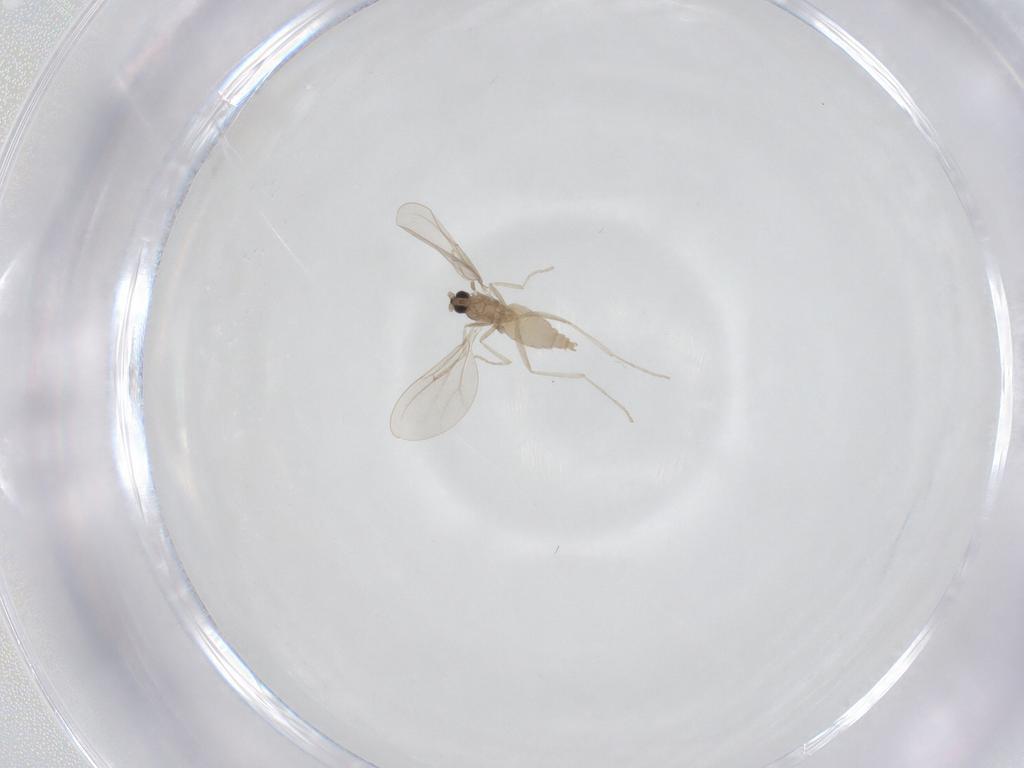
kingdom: Animalia
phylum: Arthropoda
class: Insecta
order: Diptera
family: Cecidomyiidae
